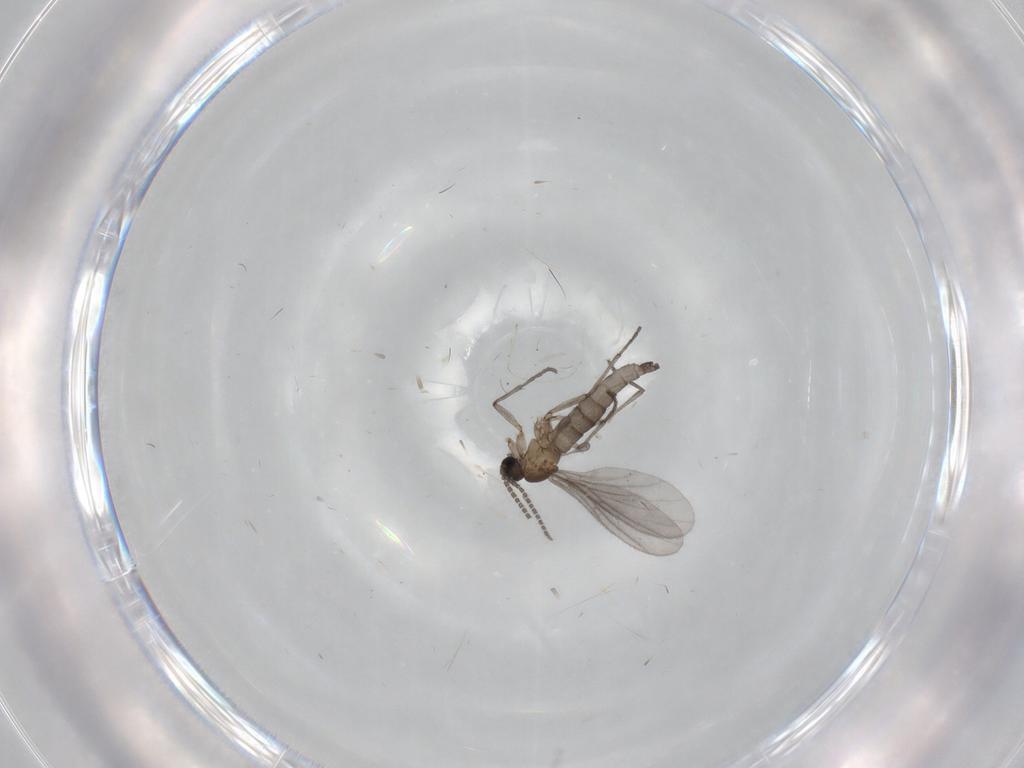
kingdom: Animalia
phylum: Arthropoda
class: Insecta
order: Diptera
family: Sciaridae
